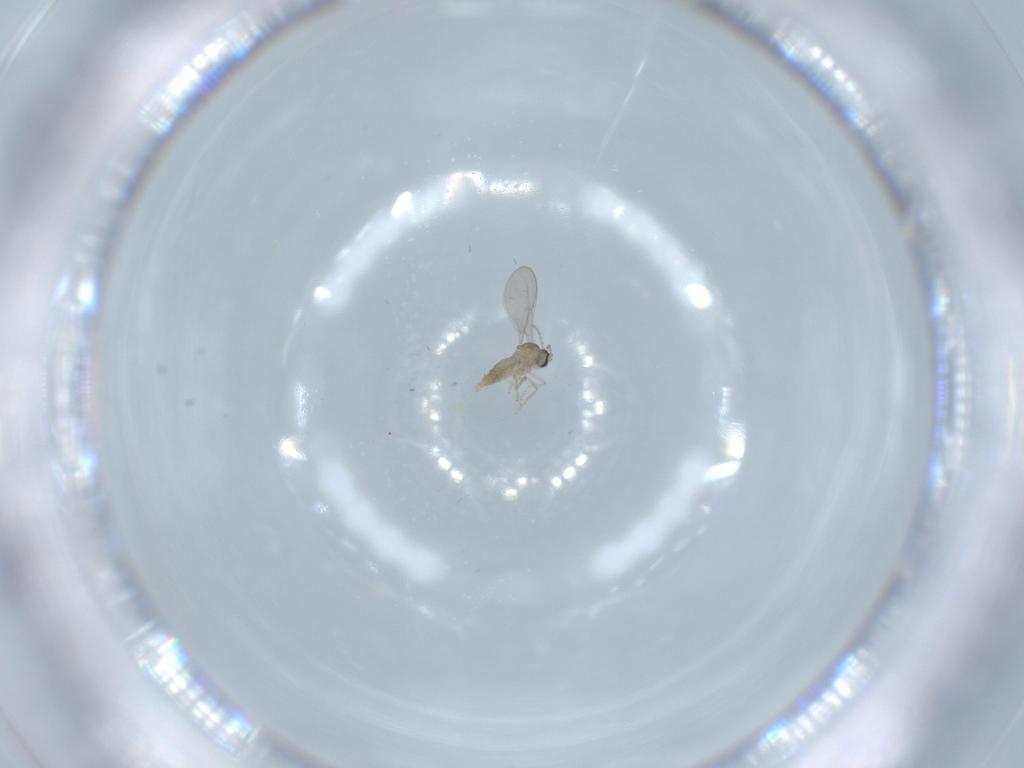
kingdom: Animalia
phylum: Arthropoda
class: Insecta
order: Diptera
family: Cecidomyiidae
